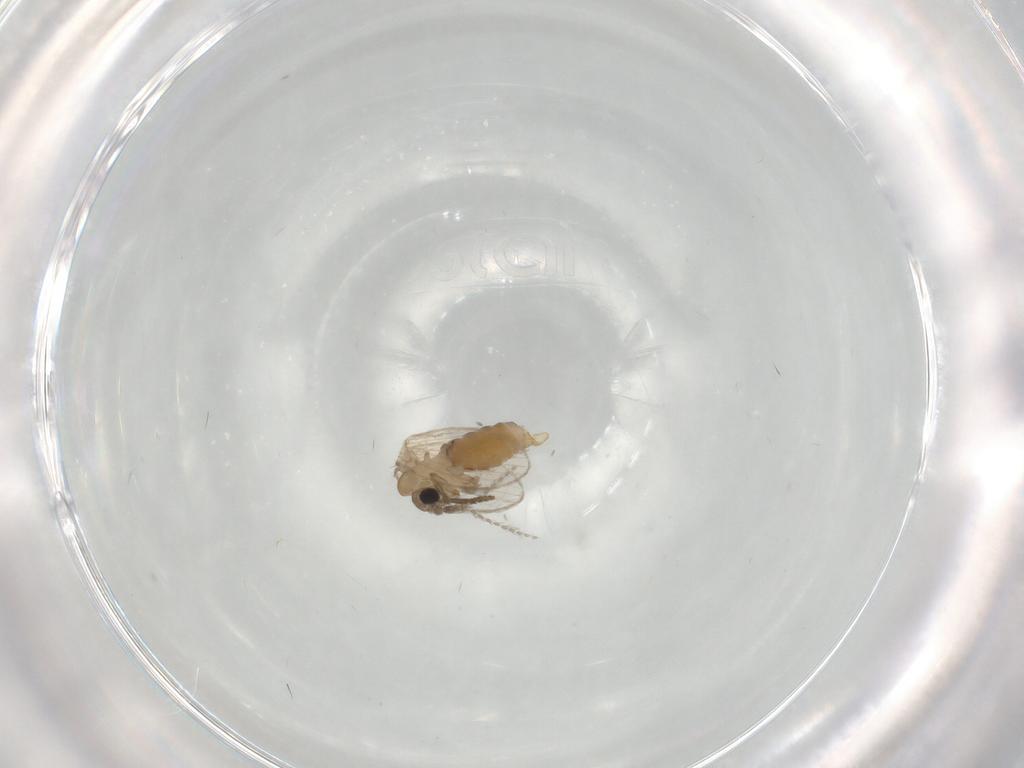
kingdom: Animalia
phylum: Arthropoda
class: Insecta
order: Diptera
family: Psychodidae
